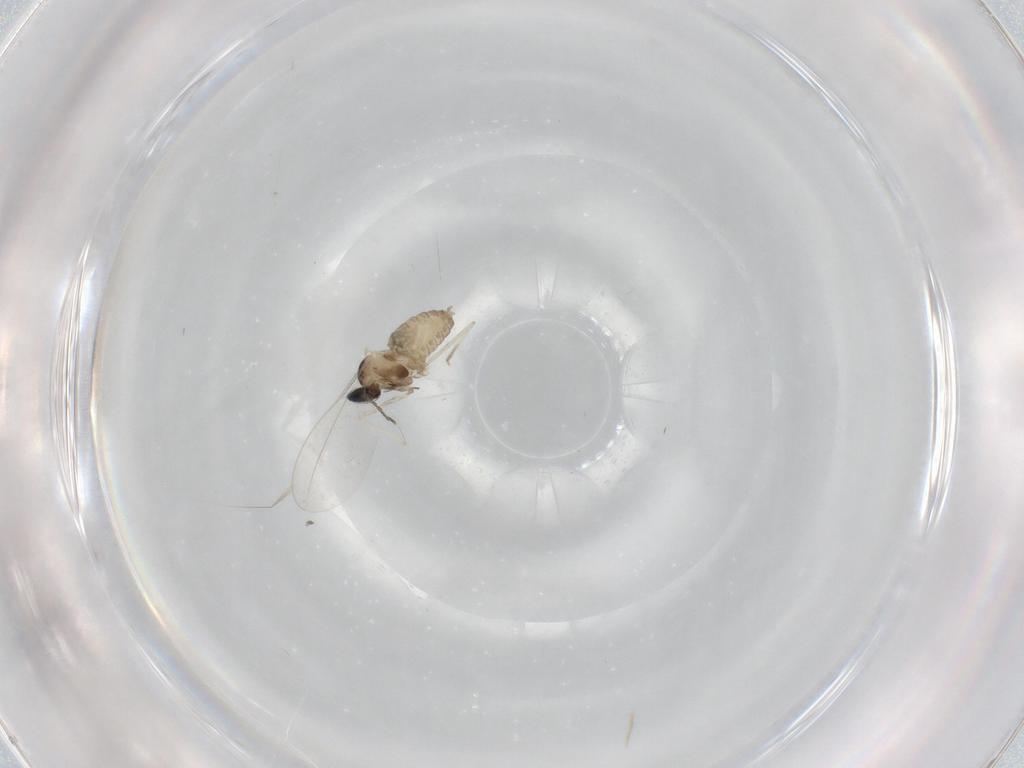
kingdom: Animalia
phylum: Arthropoda
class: Insecta
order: Diptera
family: Cecidomyiidae
